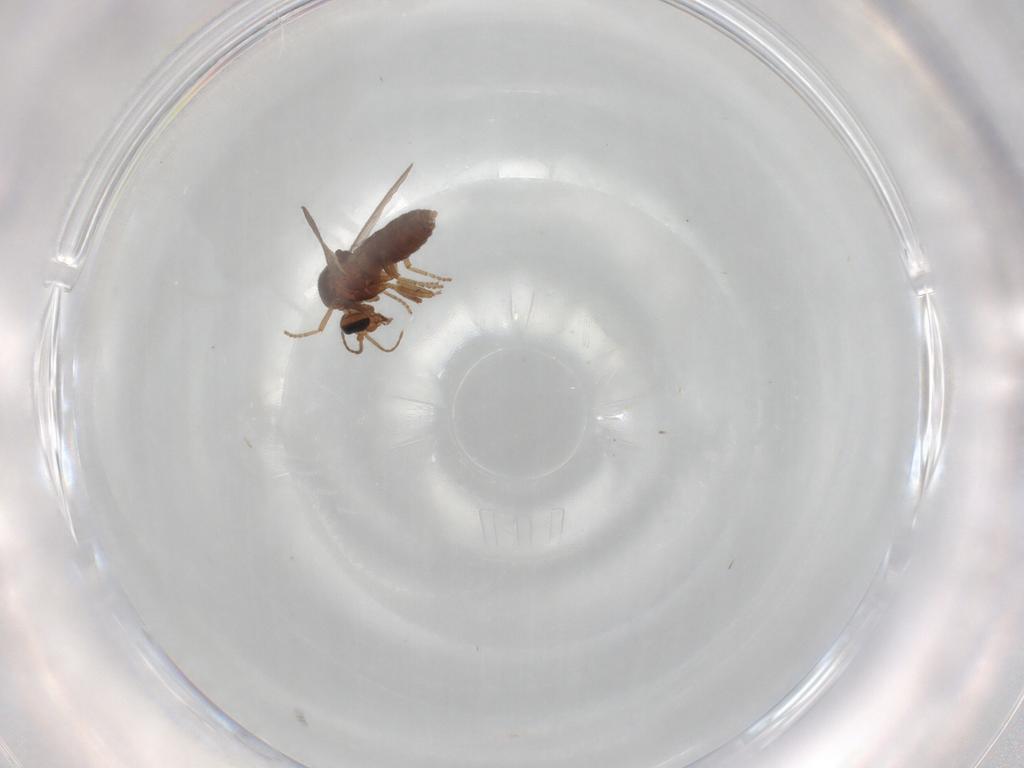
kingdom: Animalia
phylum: Arthropoda
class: Insecta
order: Diptera
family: Ceratopogonidae
